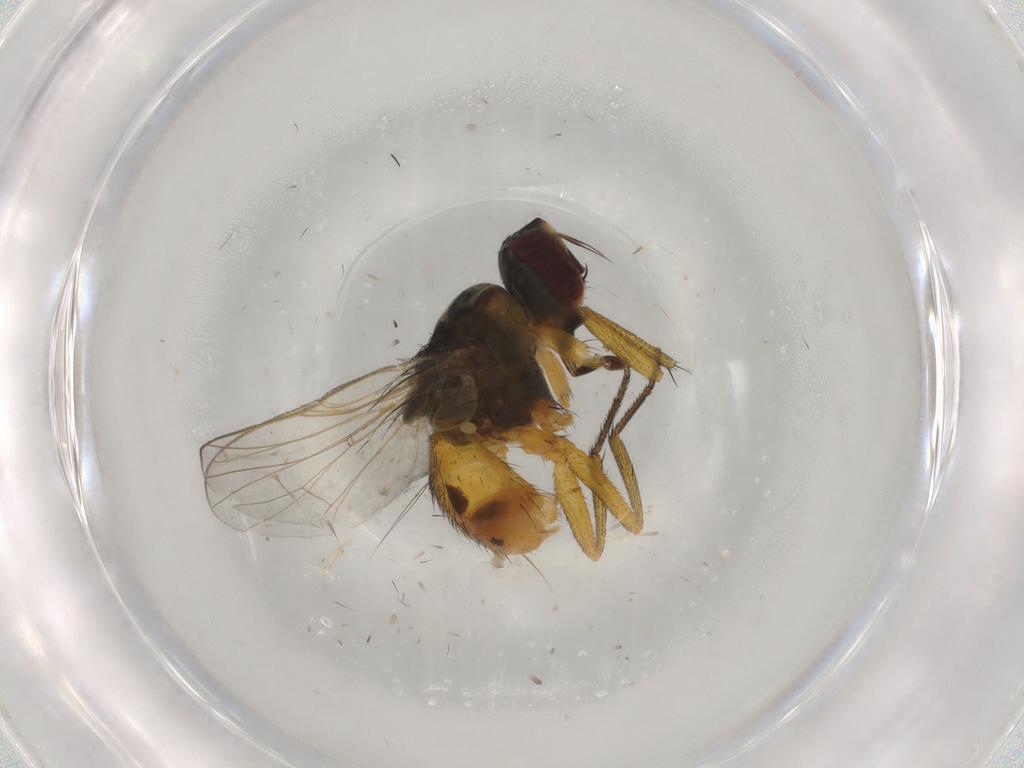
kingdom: Animalia
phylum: Arthropoda
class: Insecta
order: Diptera
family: Muscidae
